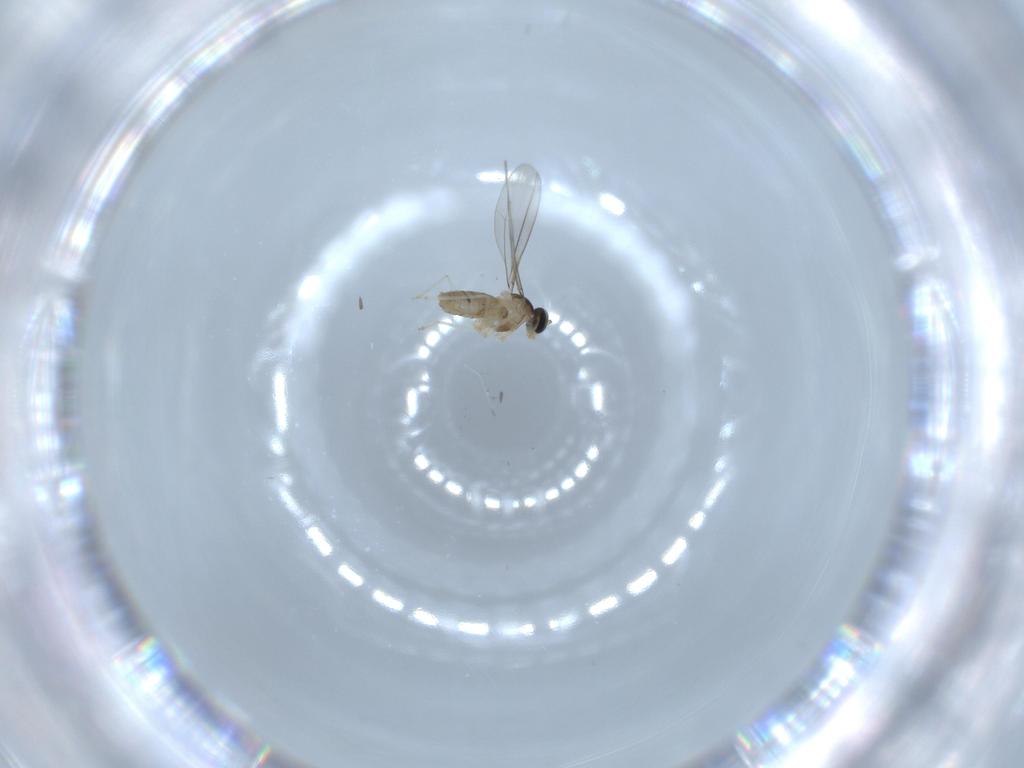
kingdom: Animalia
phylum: Arthropoda
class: Insecta
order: Diptera
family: Cecidomyiidae
